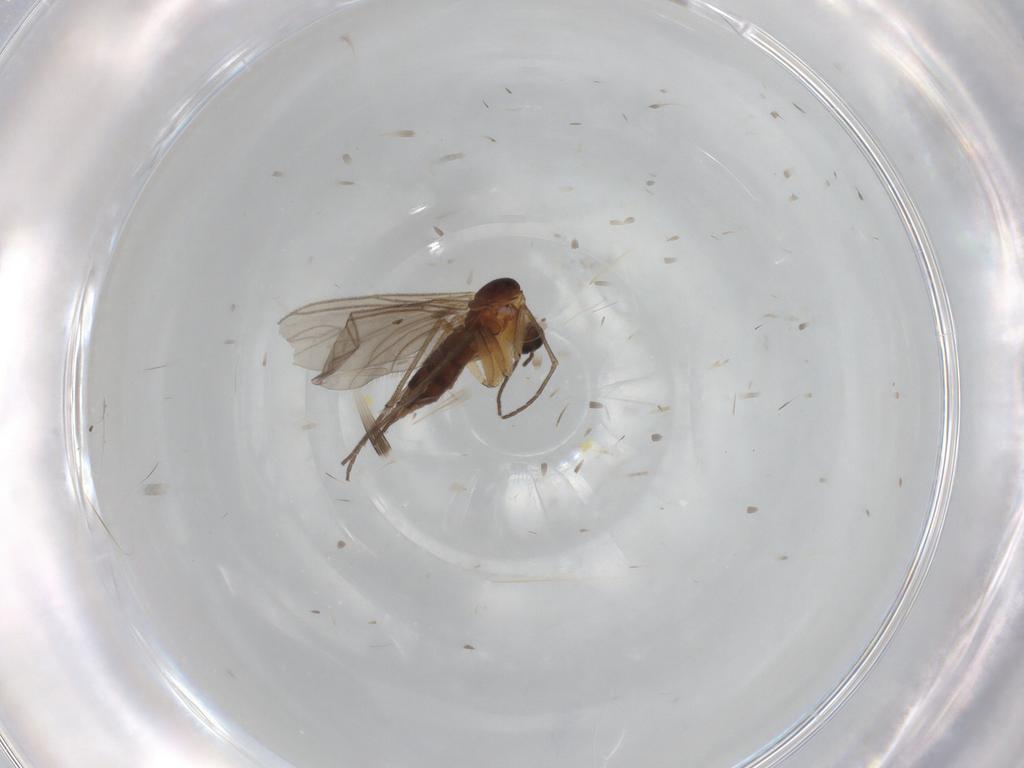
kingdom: Animalia
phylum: Arthropoda
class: Insecta
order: Diptera
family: Sciaridae
